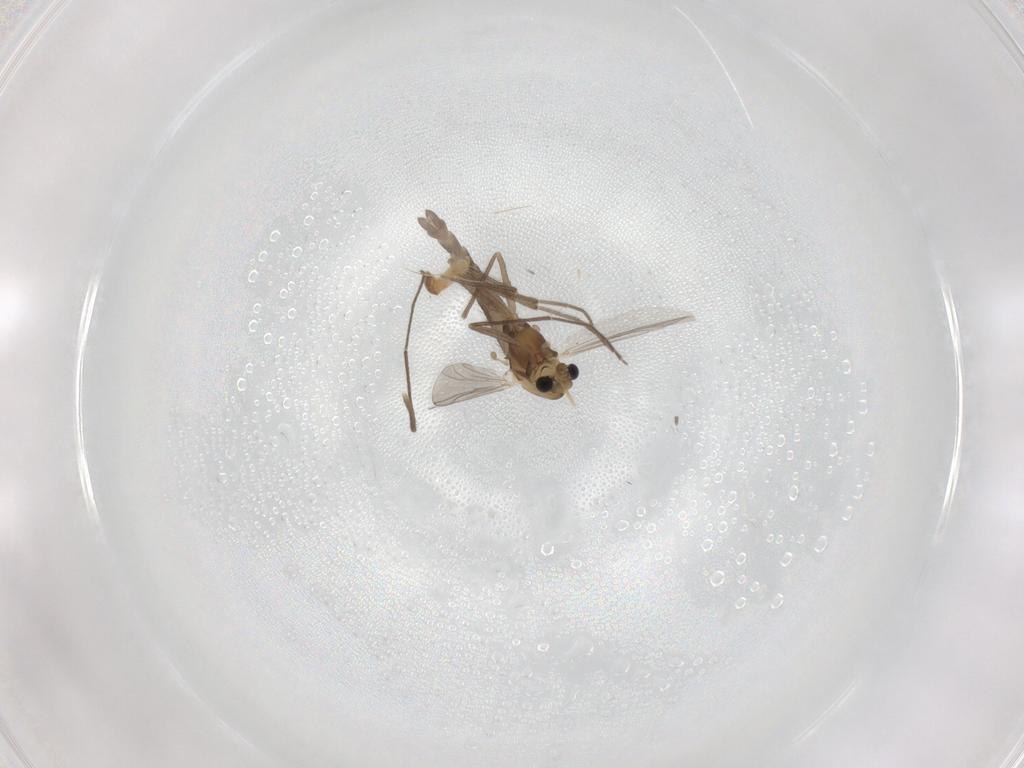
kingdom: Animalia
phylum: Arthropoda
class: Insecta
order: Diptera
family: Chironomidae
